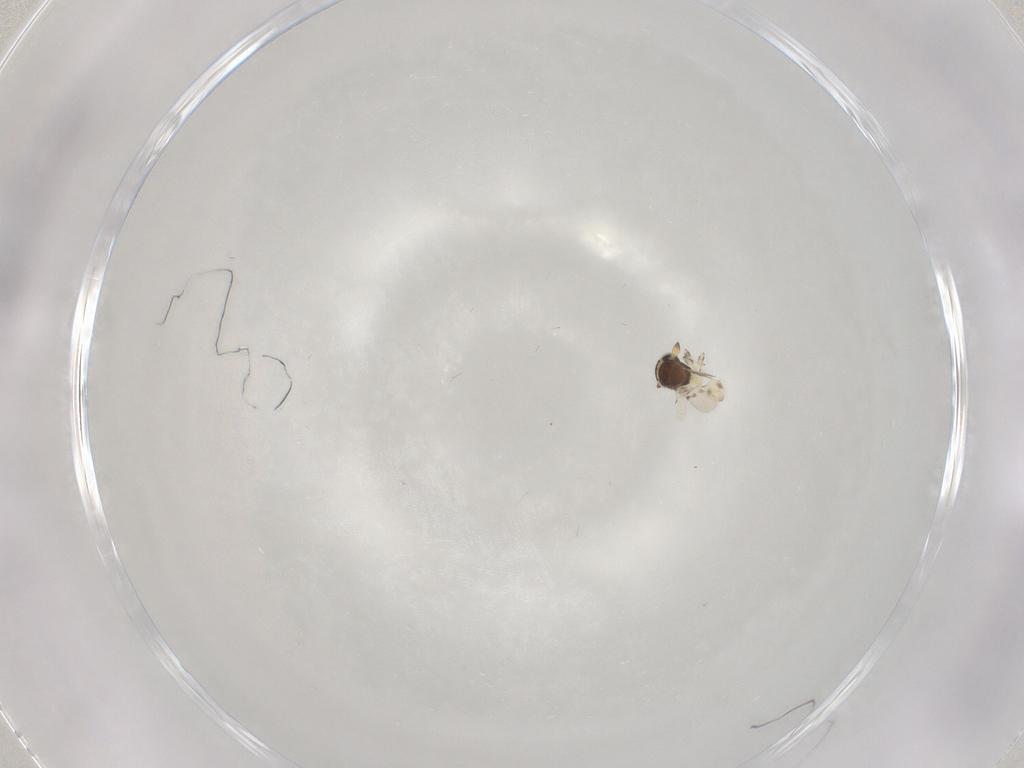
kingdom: Animalia
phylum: Arthropoda
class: Insecta
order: Hymenoptera
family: Scelionidae
